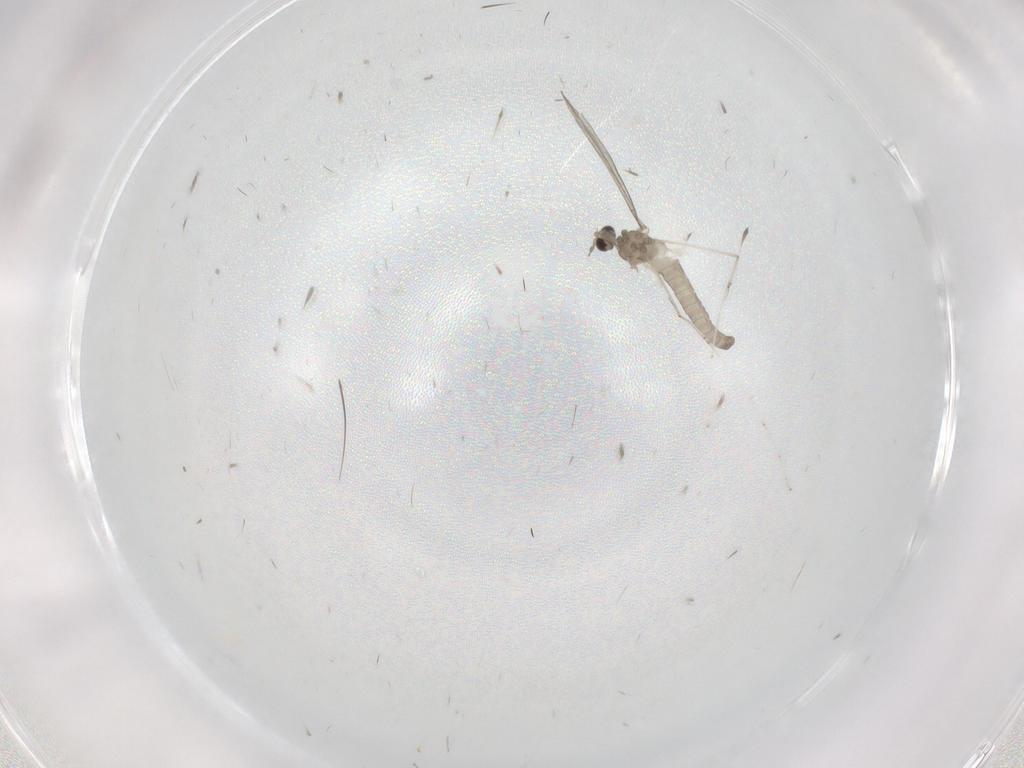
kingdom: Animalia
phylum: Arthropoda
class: Insecta
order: Diptera
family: Cecidomyiidae
